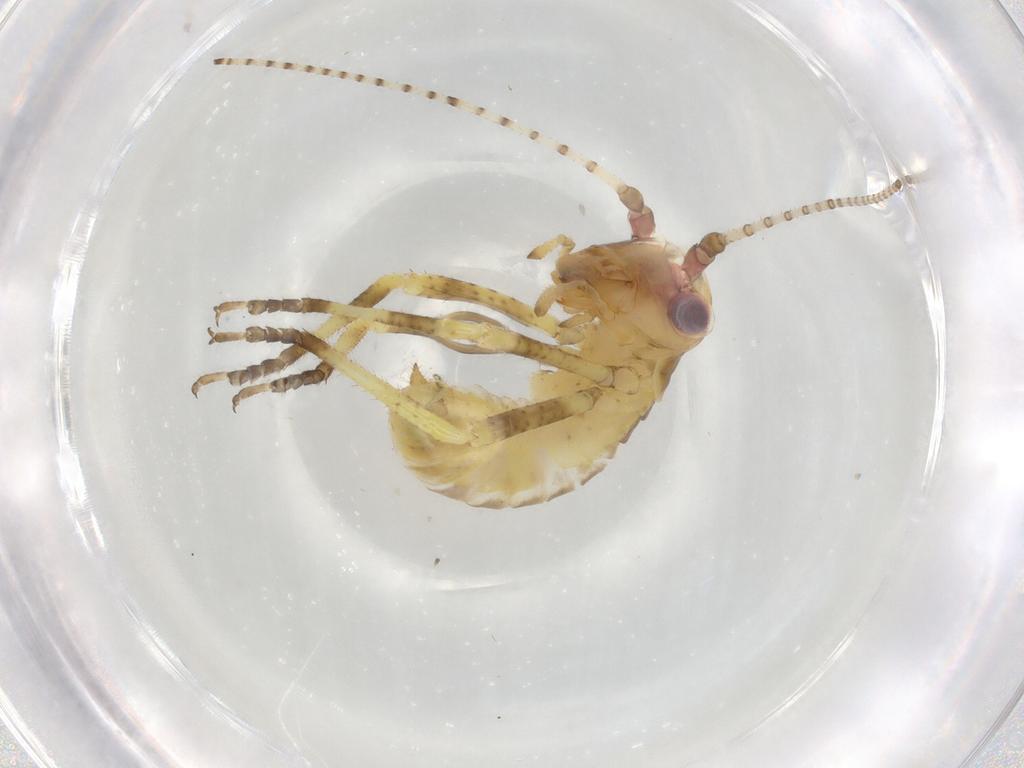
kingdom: Animalia
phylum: Arthropoda
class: Insecta
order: Orthoptera
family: Tettigoniidae
